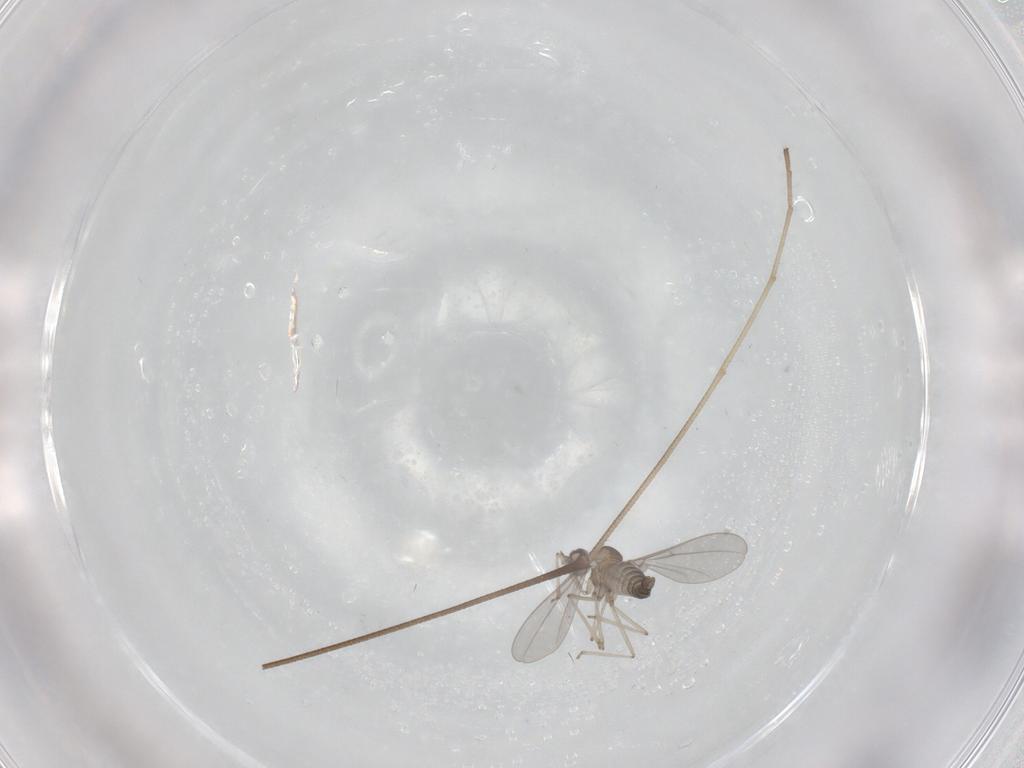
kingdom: Animalia
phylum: Arthropoda
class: Insecta
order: Diptera
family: Cecidomyiidae
